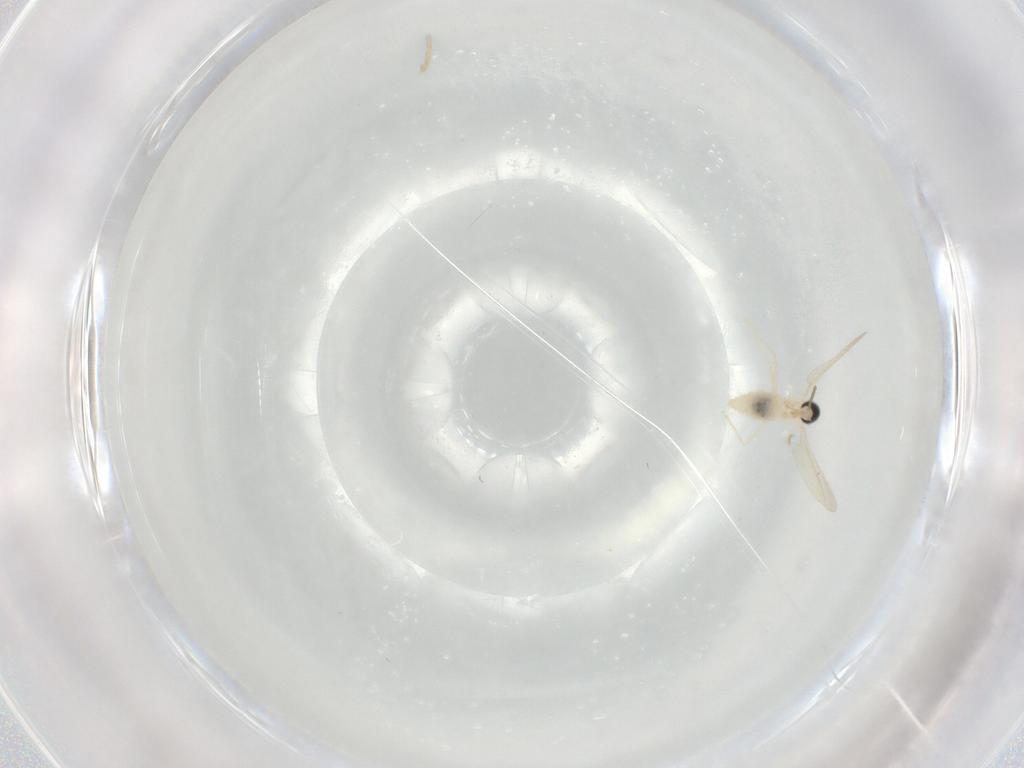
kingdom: Animalia
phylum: Arthropoda
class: Insecta
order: Diptera
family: Cecidomyiidae
